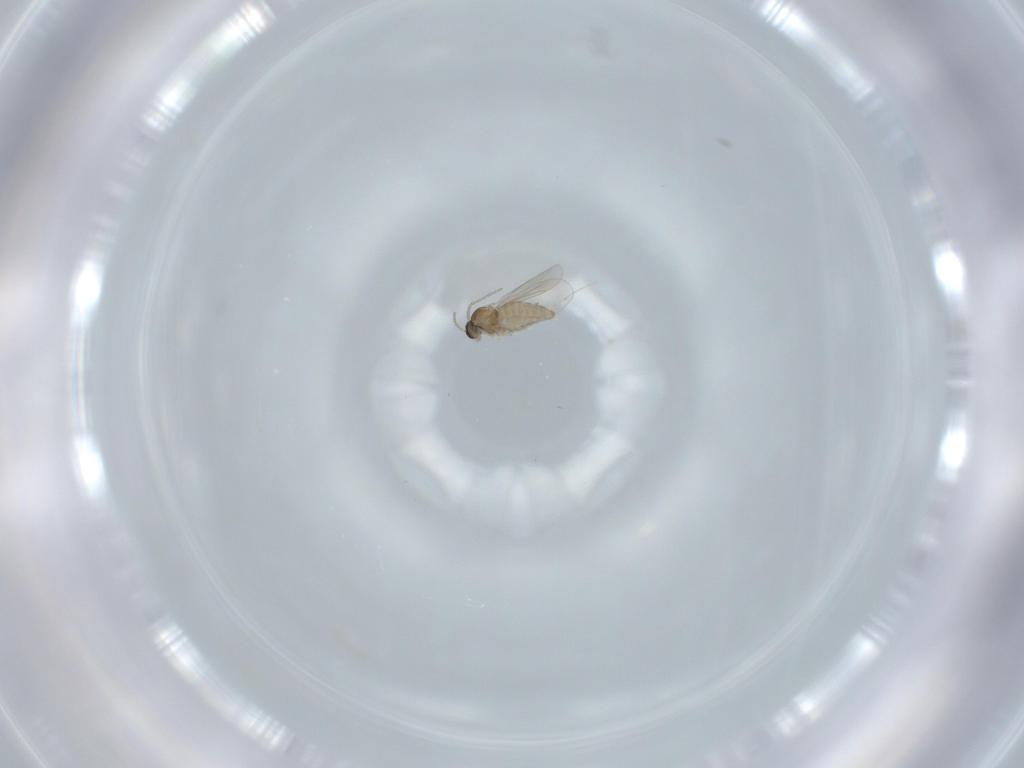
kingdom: Animalia
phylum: Arthropoda
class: Insecta
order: Diptera
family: Cecidomyiidae
